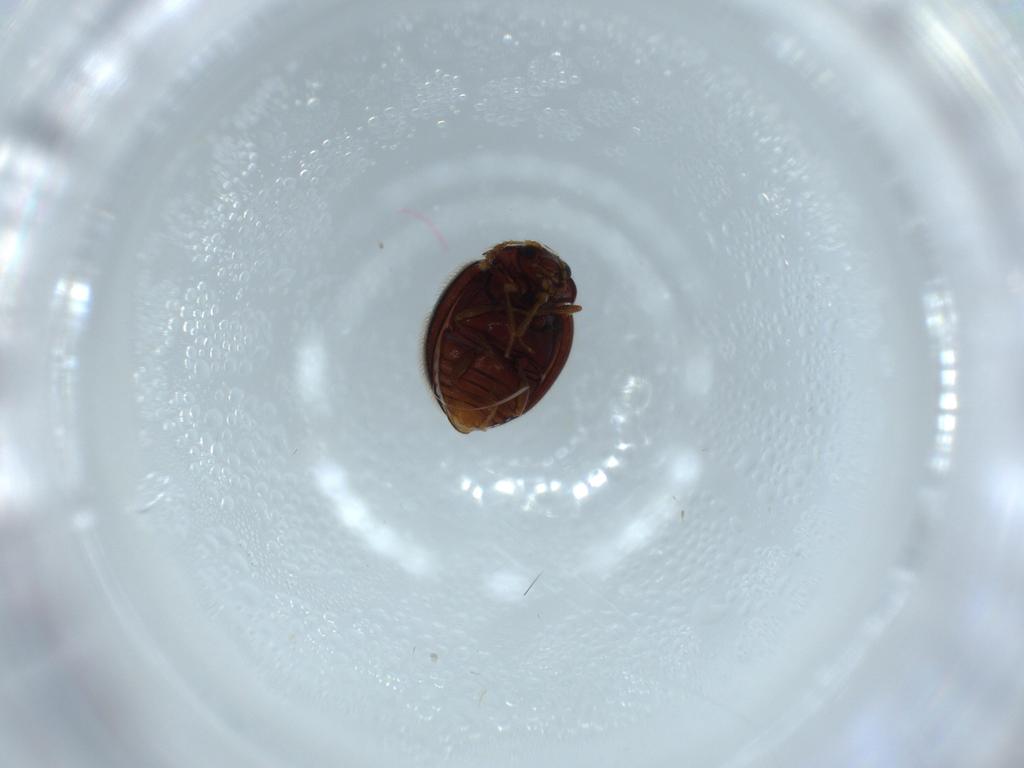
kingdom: Animalia
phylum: Arthropoda
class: Insecta
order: Coleoptera
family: Anamorphidae
